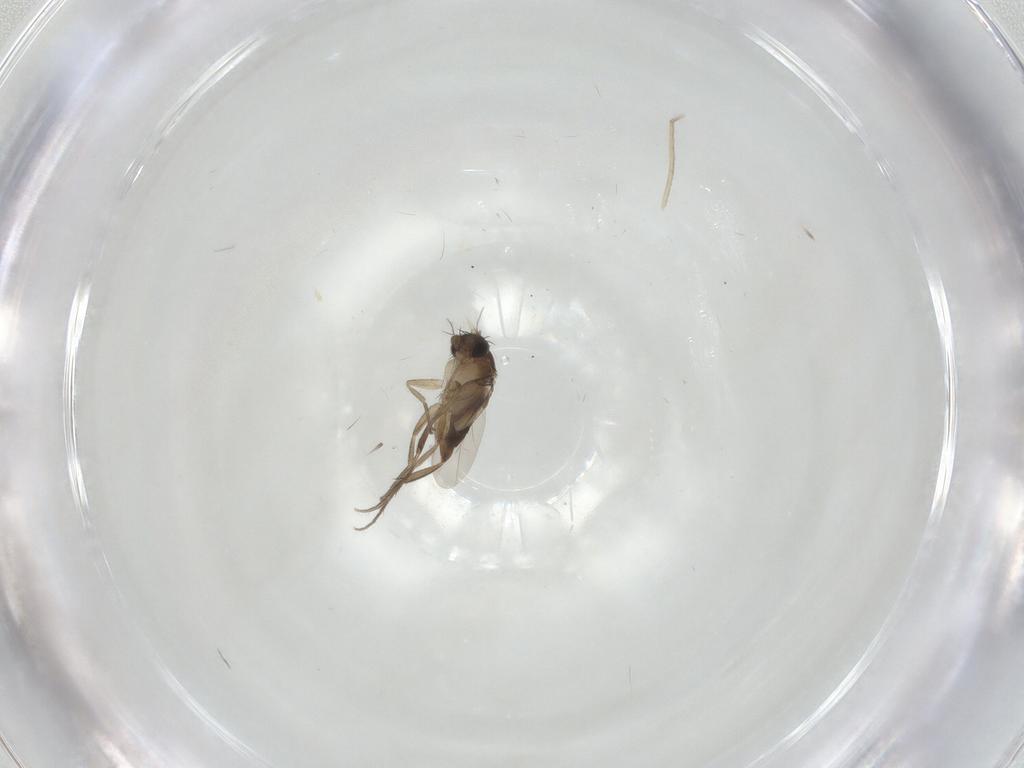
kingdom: Animalia
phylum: Arthropoda
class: Insecta
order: Diptera
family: Phoridae
